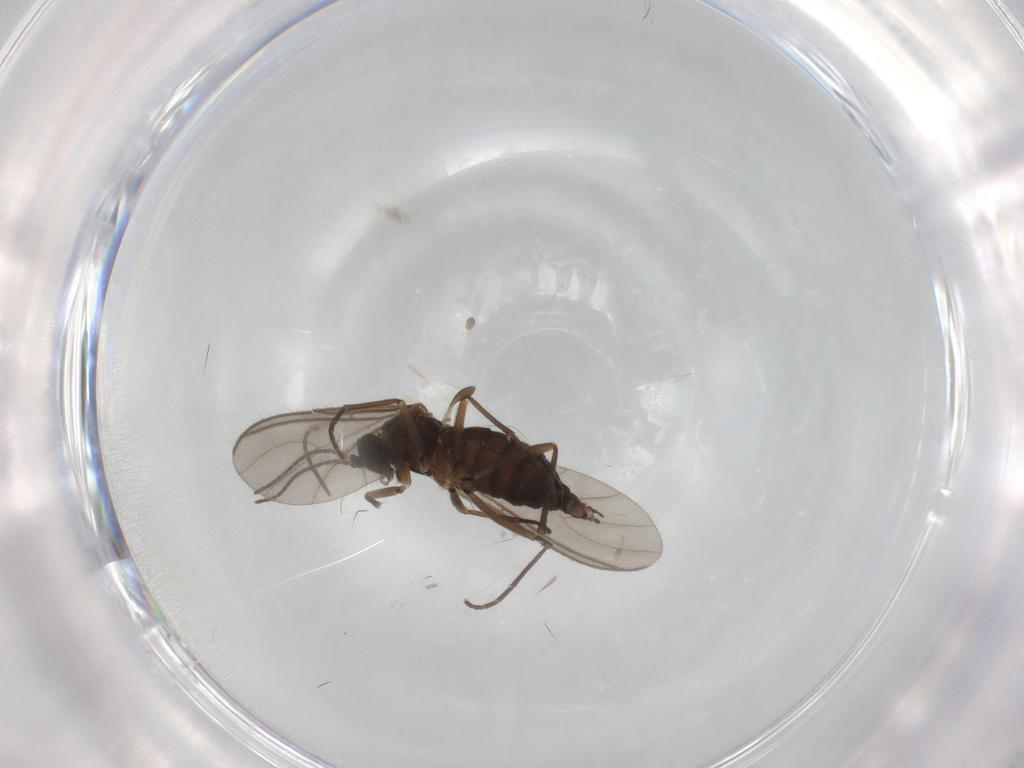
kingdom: Animalia
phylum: Arthropoda
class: Insecta
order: Diptera
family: Sciaridae
